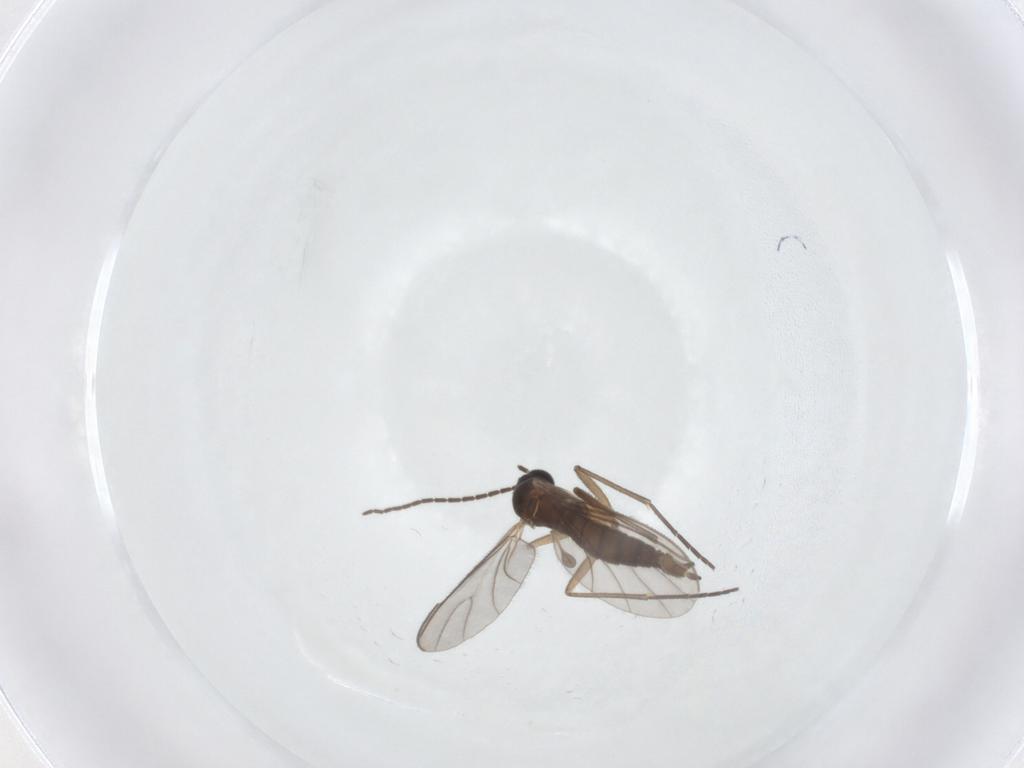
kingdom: Animalia
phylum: Arthropoda
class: Insecta
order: Diptera
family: Sciaridae
